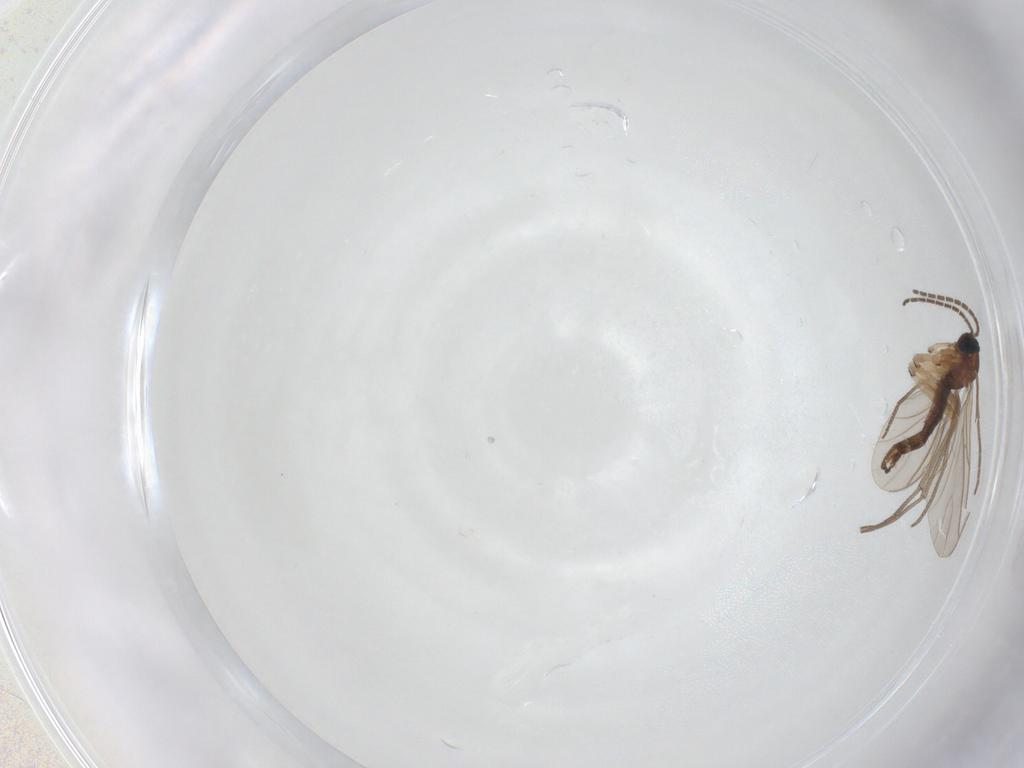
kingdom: Animalia
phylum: Arthropoda
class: Insecta
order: Diptera
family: Sciaridae
